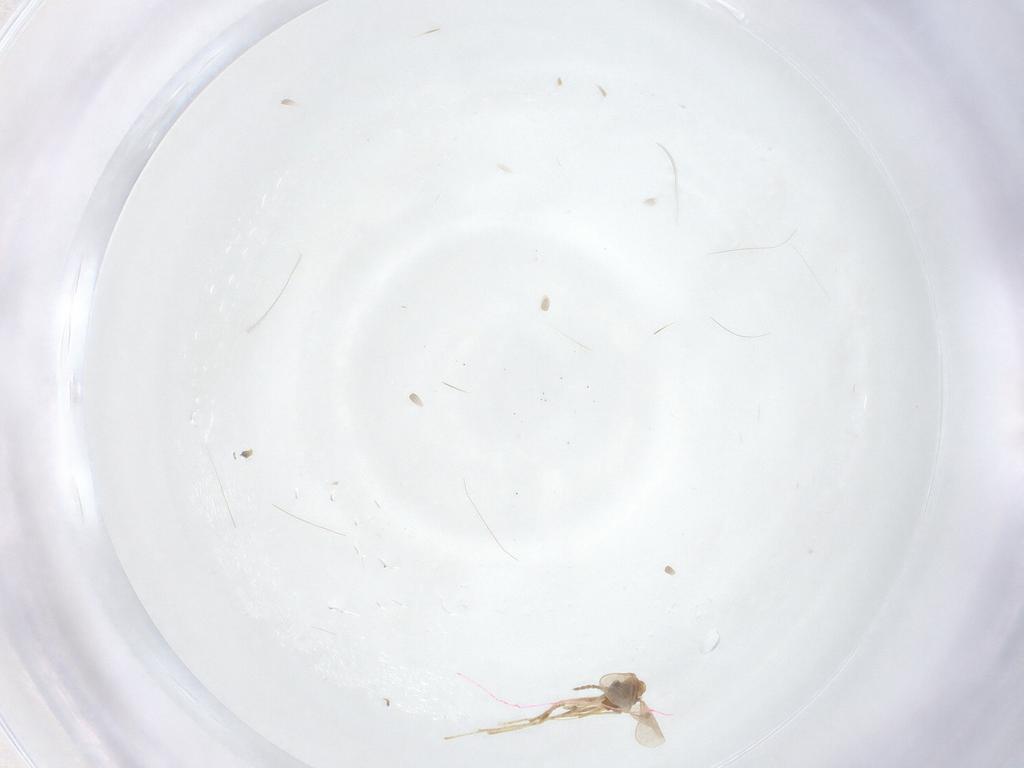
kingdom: Animalia
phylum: Arthropoda
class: Insecta
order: Diptera
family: Cecidomyiidae
